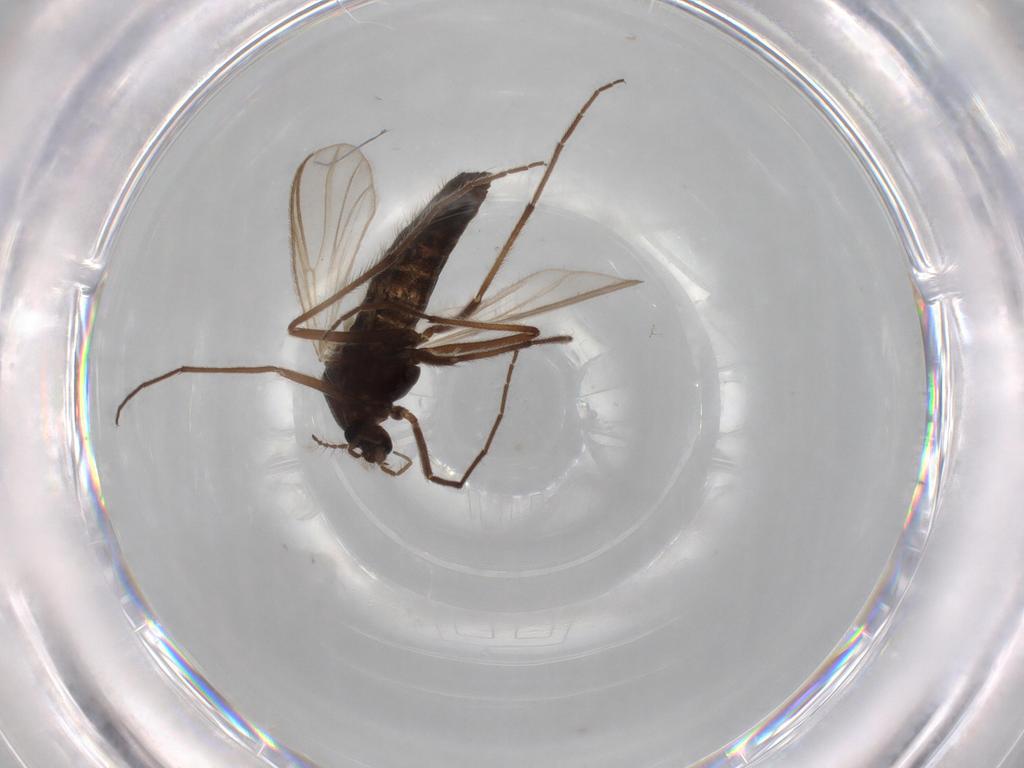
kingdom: Animalia
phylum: Arthropoda
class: Insecta
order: Diptera
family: Dolichopodidae
